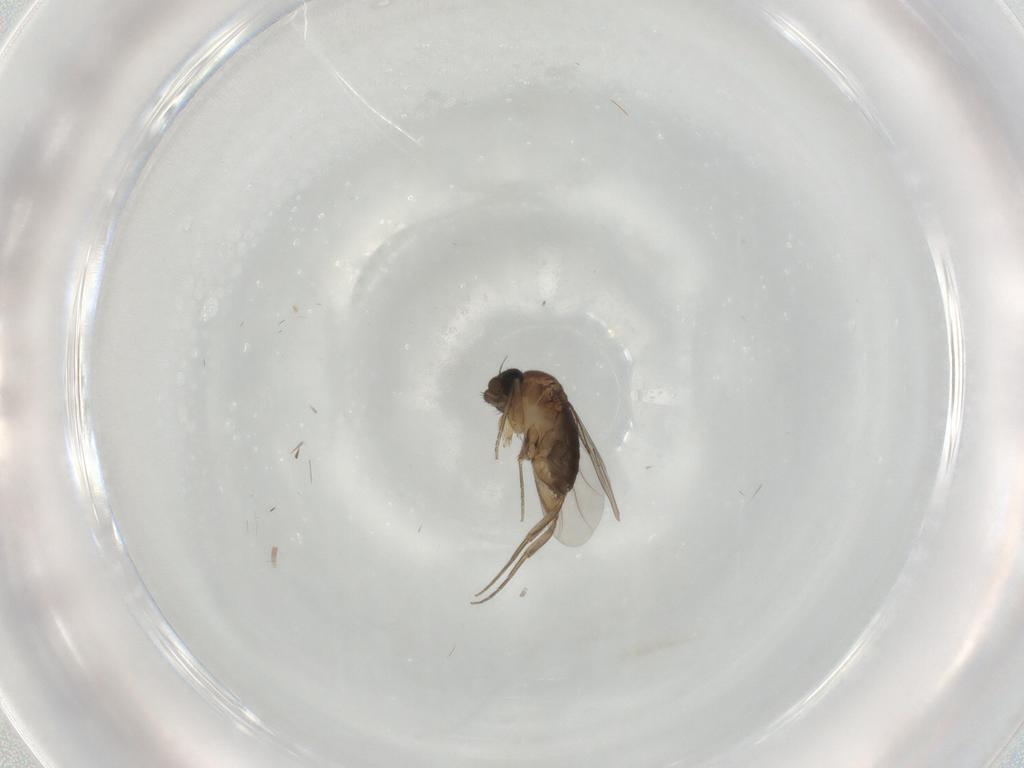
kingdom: Animalia
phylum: Arthropoda
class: Insecta
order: Diptera
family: Phoridae
